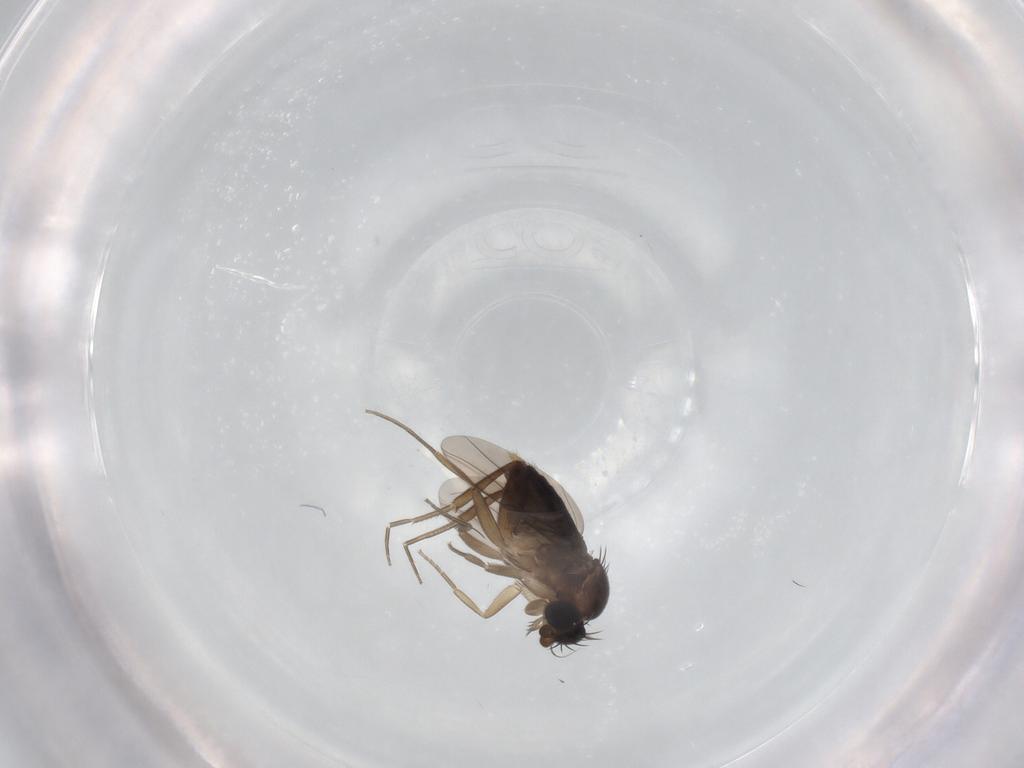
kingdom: Animalia
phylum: Arthropoda
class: Insecta
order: Diptera
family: Phoridae
